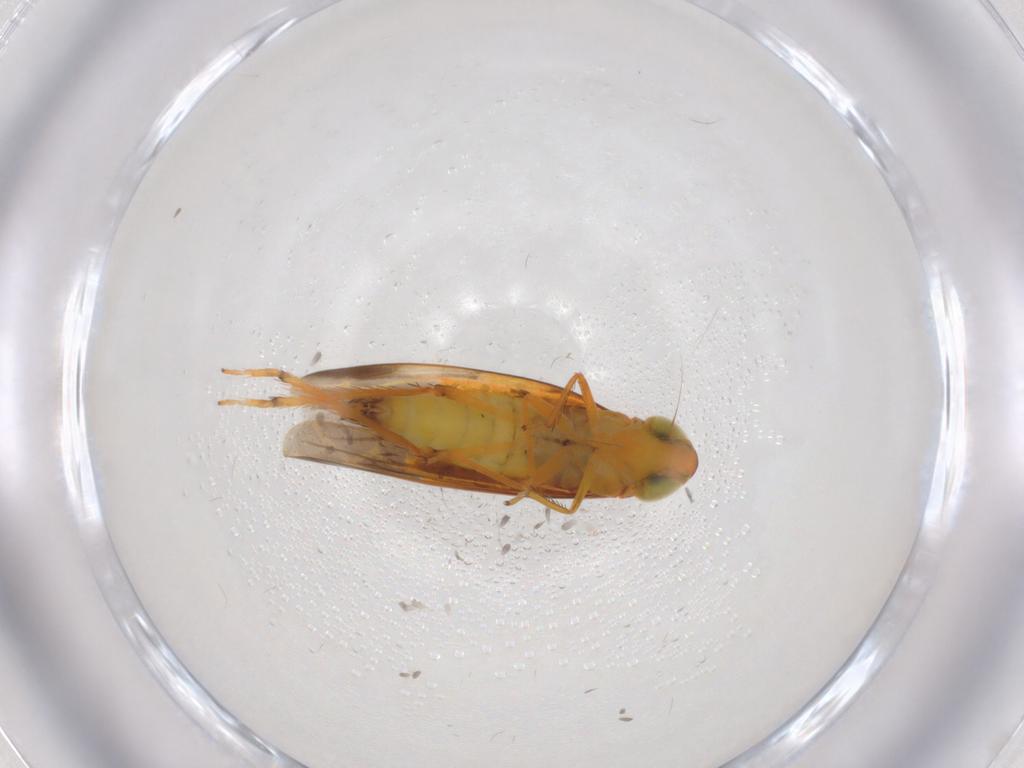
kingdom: Animalia
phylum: Arthropoda
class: Insecta
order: Hemiptera
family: Cicadellidae
